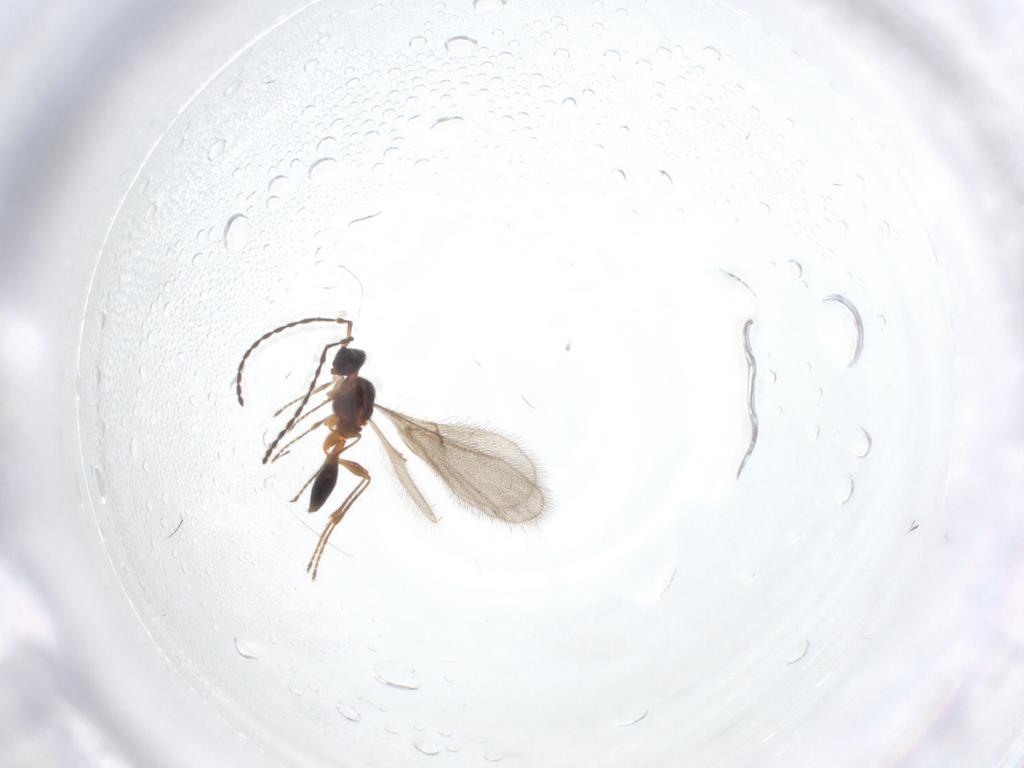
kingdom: Animalia
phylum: Arthropoda
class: Insecta
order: Hymenoptera
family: Diapriidae
